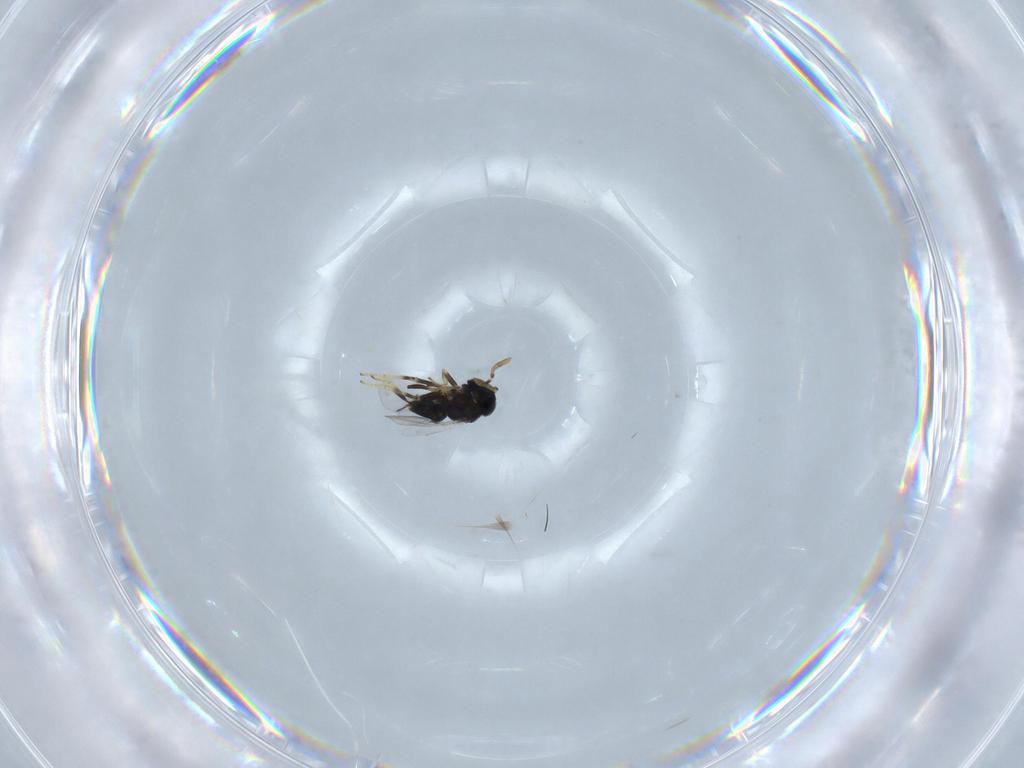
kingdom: Animalia
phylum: Arthropoda
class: Insecta
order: Diptera
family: Mycetophilidae
